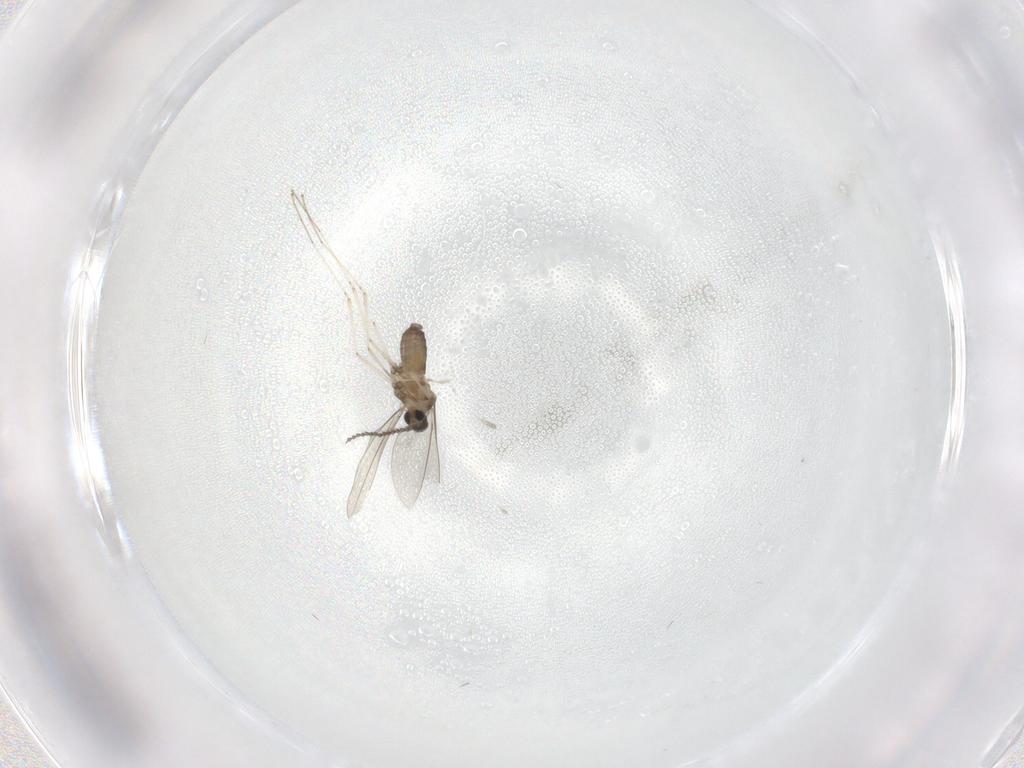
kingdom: Animalia
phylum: Arthropoda
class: Insecta
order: Diptera
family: Cecidomyiidae
